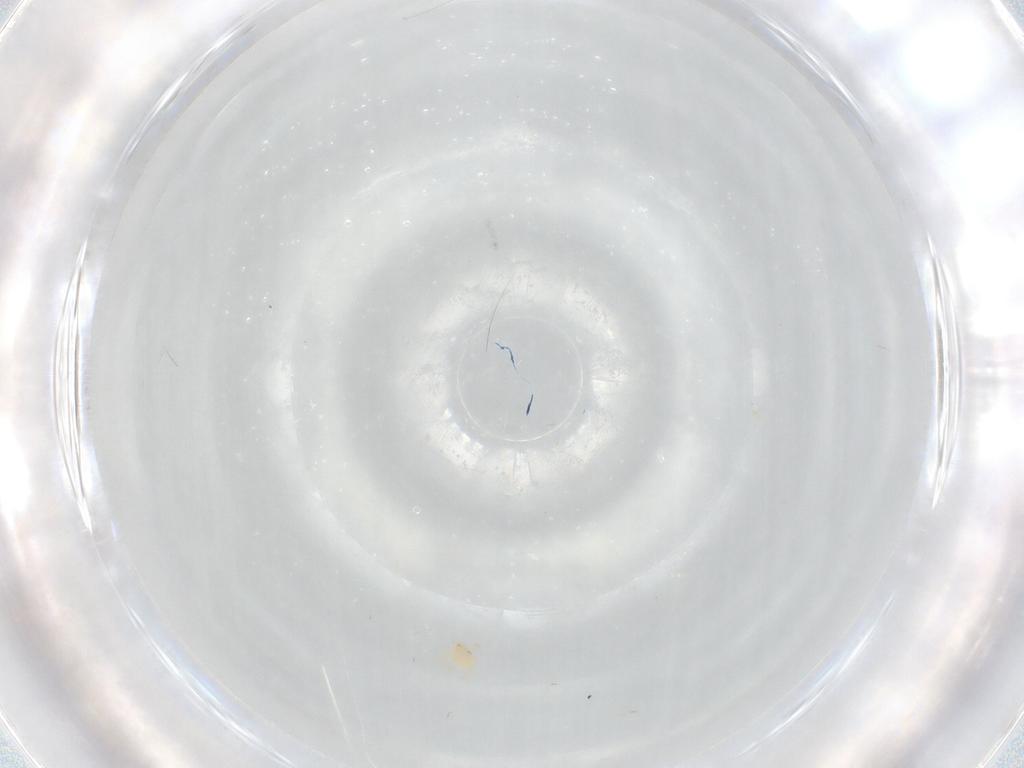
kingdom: Animalia
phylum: Arthropoda
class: Arachnida
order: Trombidiformes
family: Hydryphantidae
